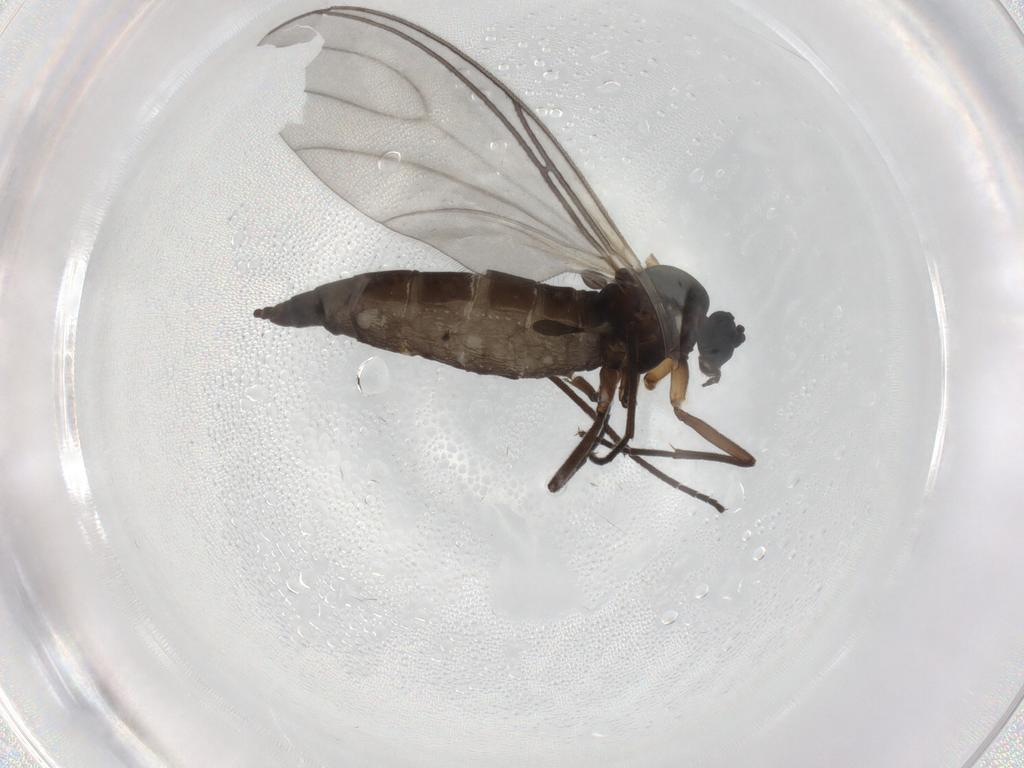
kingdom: Animalia
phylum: Arthropoda
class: Insecta
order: Diptera
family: Sciaridae
